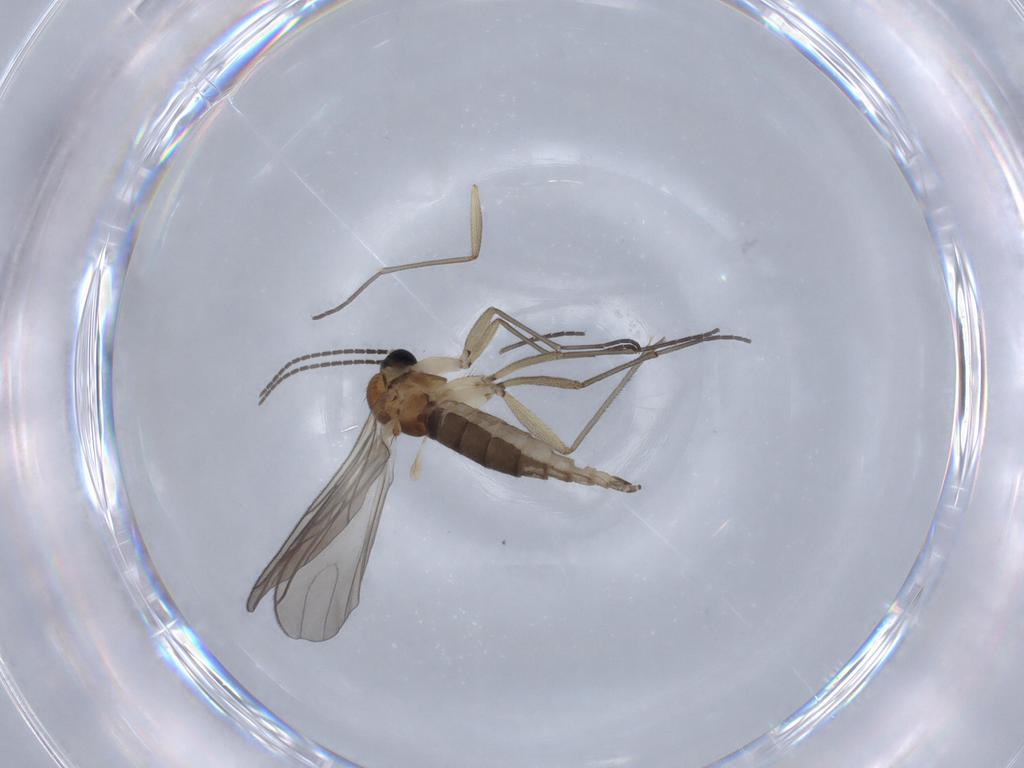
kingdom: Animalia
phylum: Arthropoda
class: Insecta
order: Diptera
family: Sciaridae
